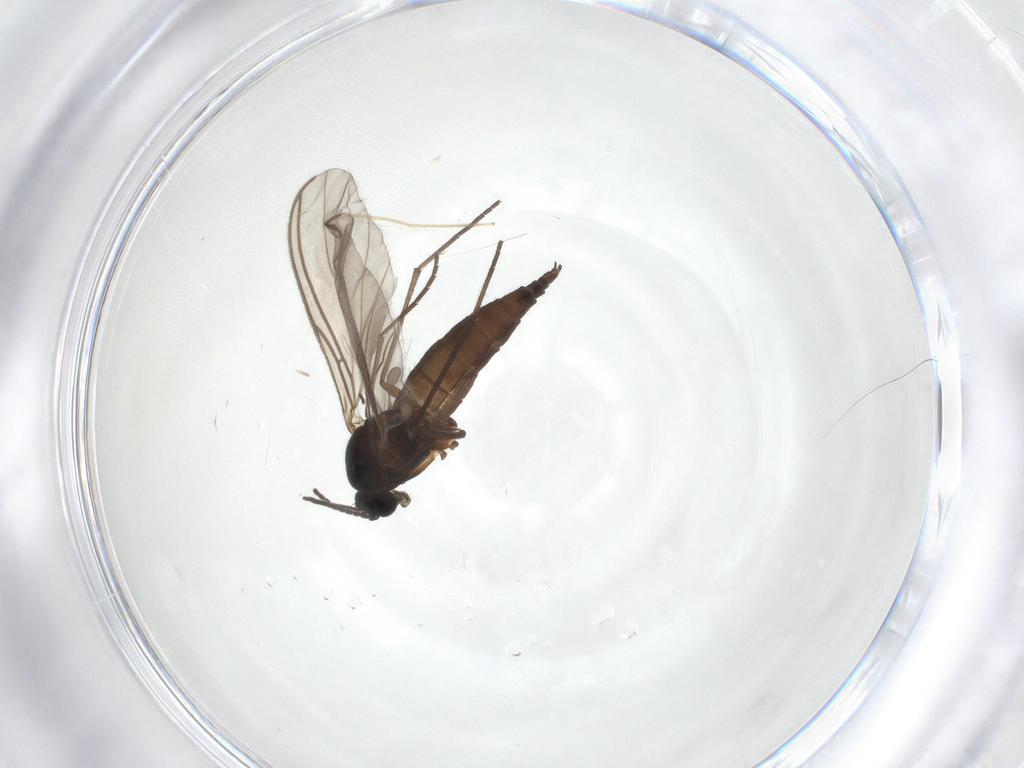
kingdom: Animalia
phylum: Arthropoda
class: Insecta
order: Diptera
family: Sciaridae
